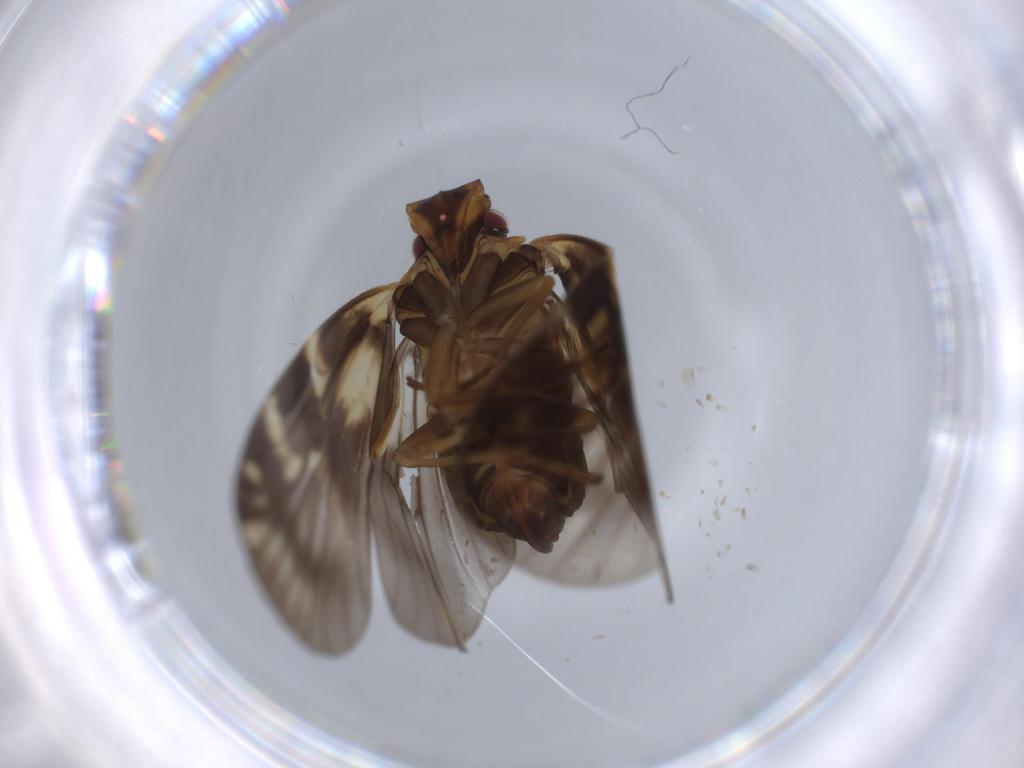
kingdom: Animalia
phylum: Arthropoda
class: Insecta
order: Hemiptera
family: Cixiidae
